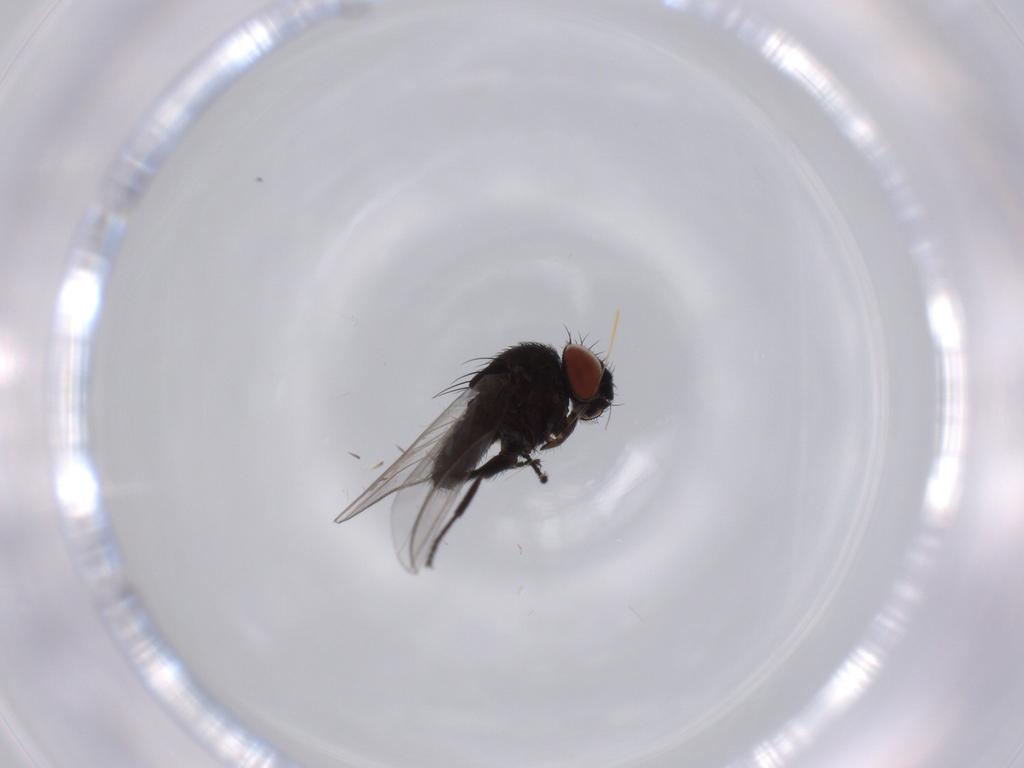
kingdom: Animalia
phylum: Arthropoda
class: Insecta
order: Diptera
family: Milichiidae
